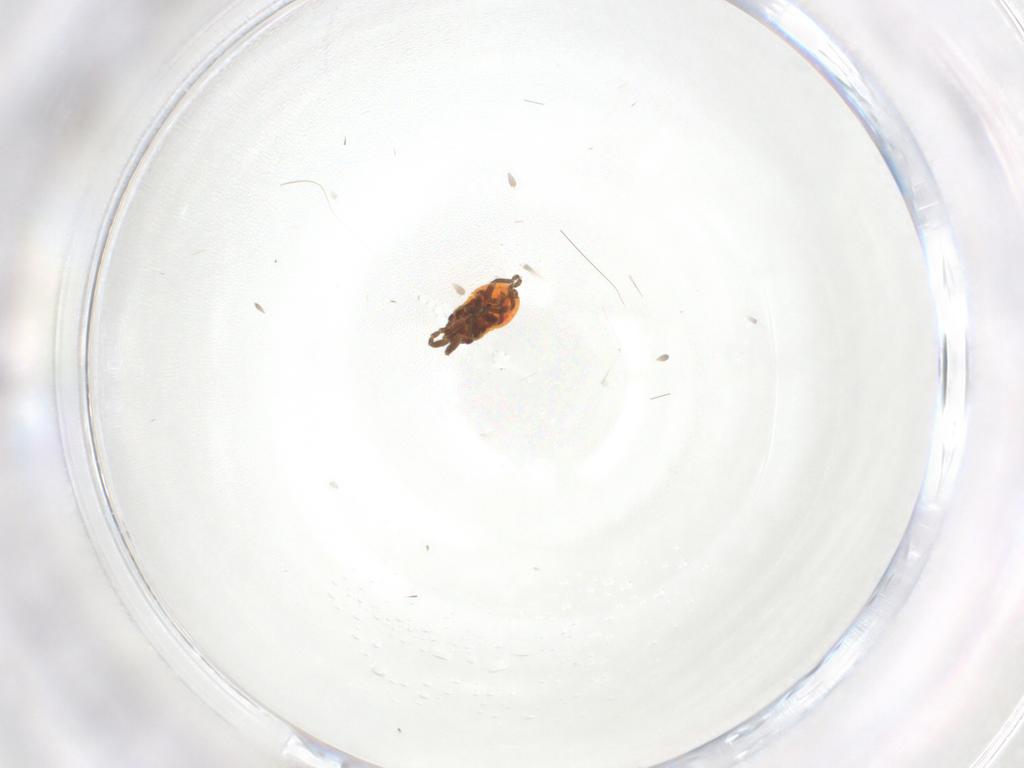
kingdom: Animalia
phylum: Arthropoda
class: Insecta
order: Hemiptera
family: Lygaeidae
